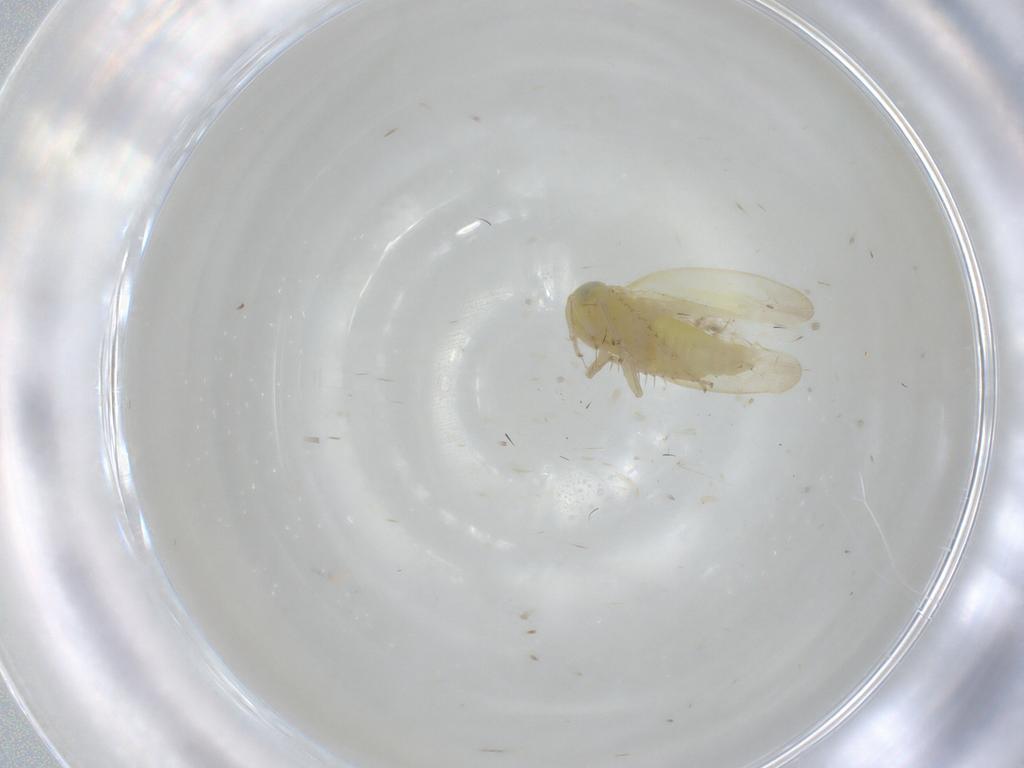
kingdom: Animalia
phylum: Arthropoda
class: Insecta
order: Hemiptera
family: Cicadellidae
